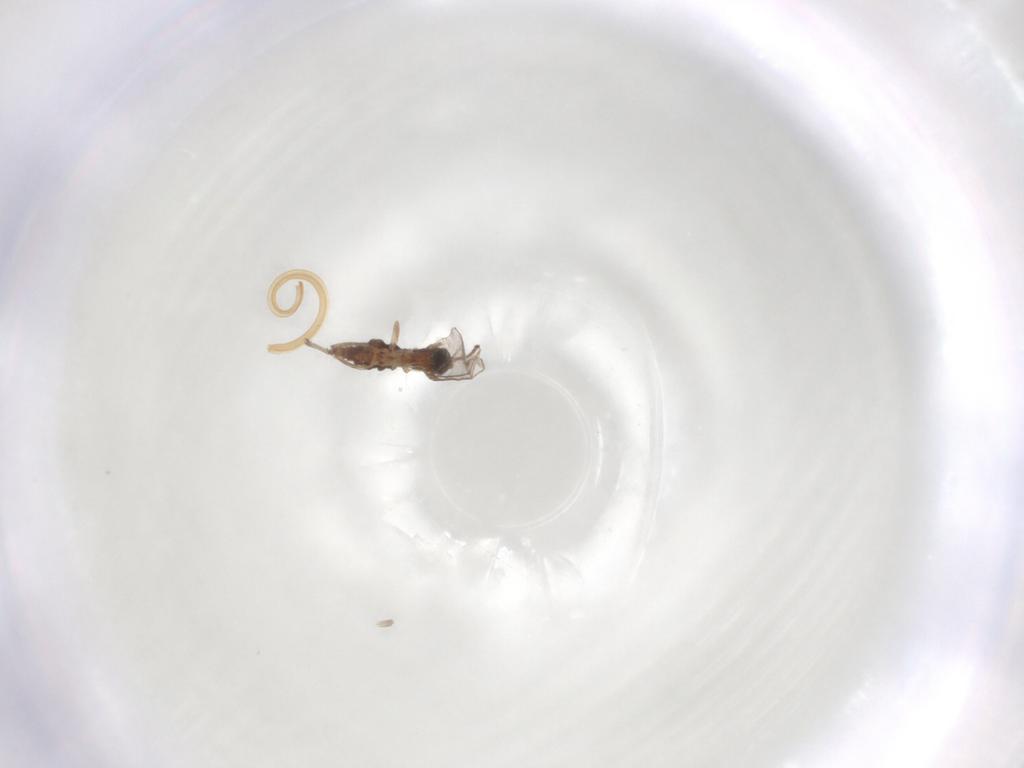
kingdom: Animalia
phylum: Arthropoda
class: Insecta
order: Diptera
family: Sciaridae
